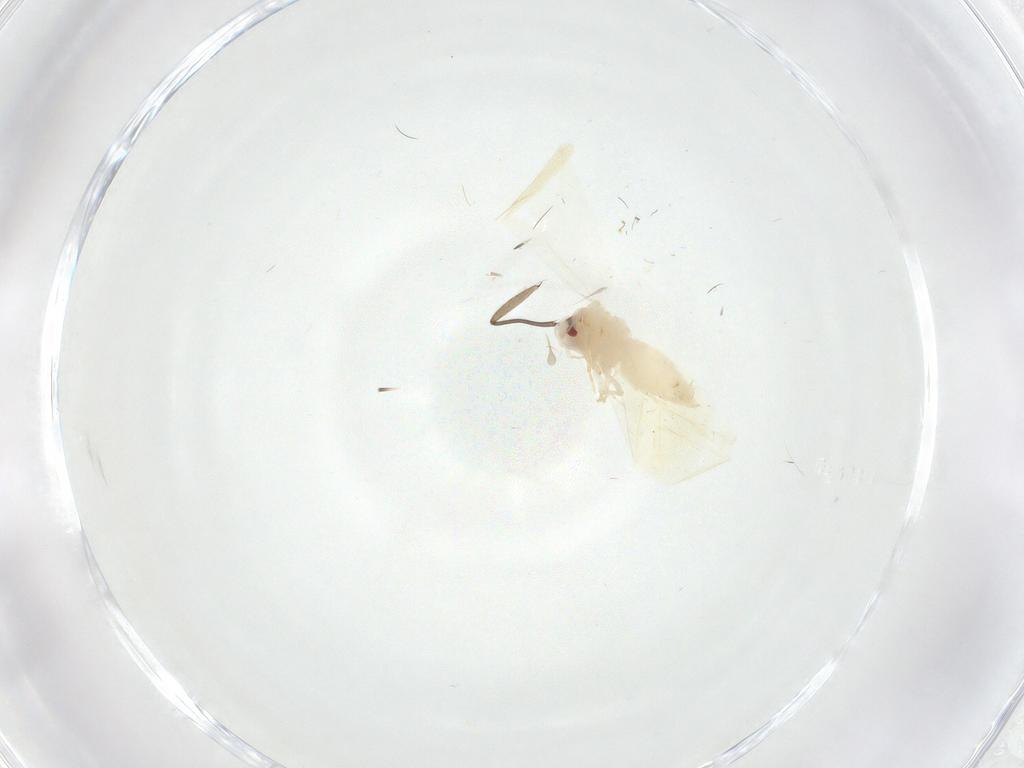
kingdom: Animalia
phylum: Arthropoda
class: Insecta
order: Hemiptera
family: Aleyrodidae
